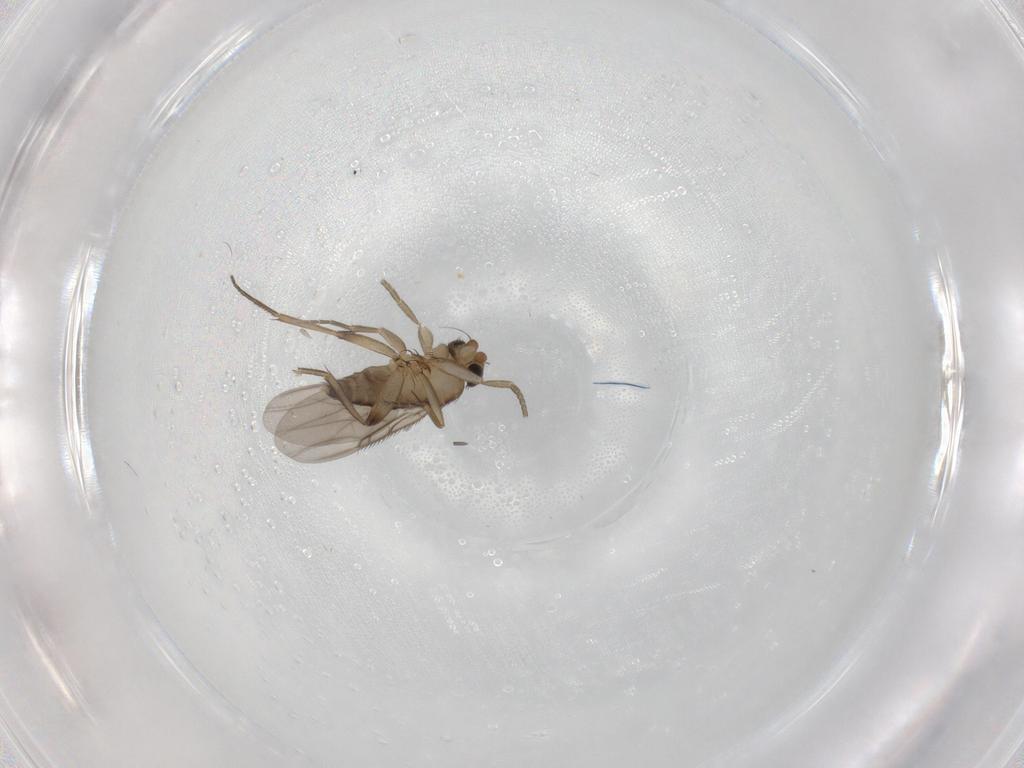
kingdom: Animalia
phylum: Arthropoda
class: Insecta
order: Diptera
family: Phoridae
